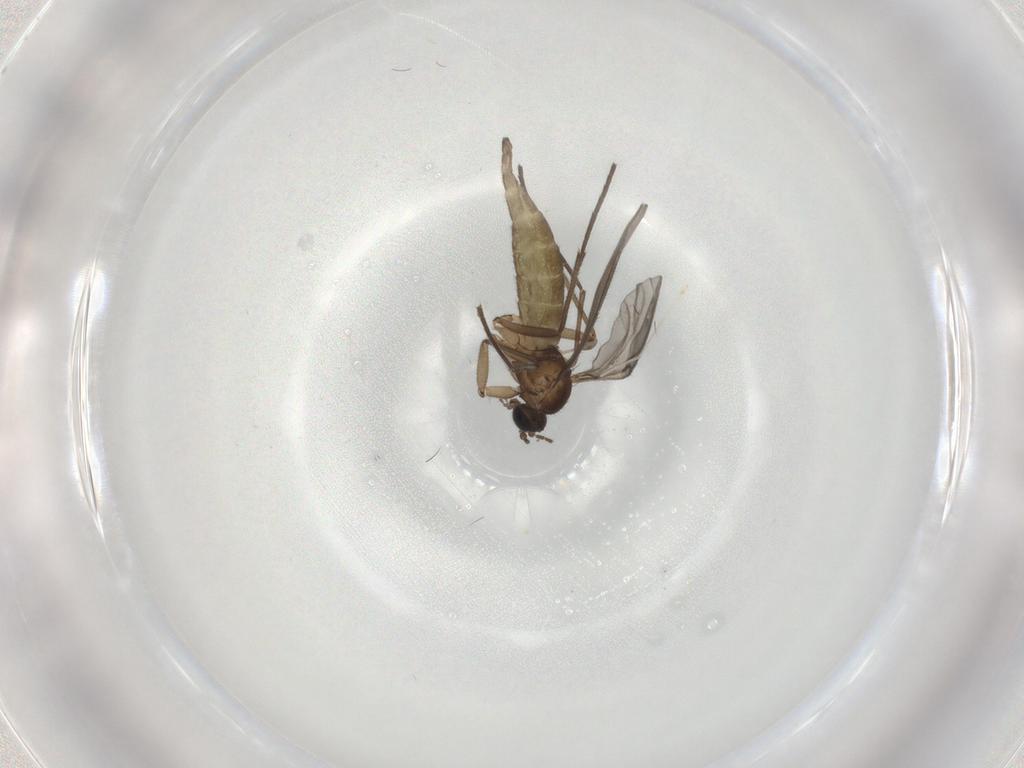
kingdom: Animalia
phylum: Arthropoda
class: Insecta
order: Diptera
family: Sciaridae
